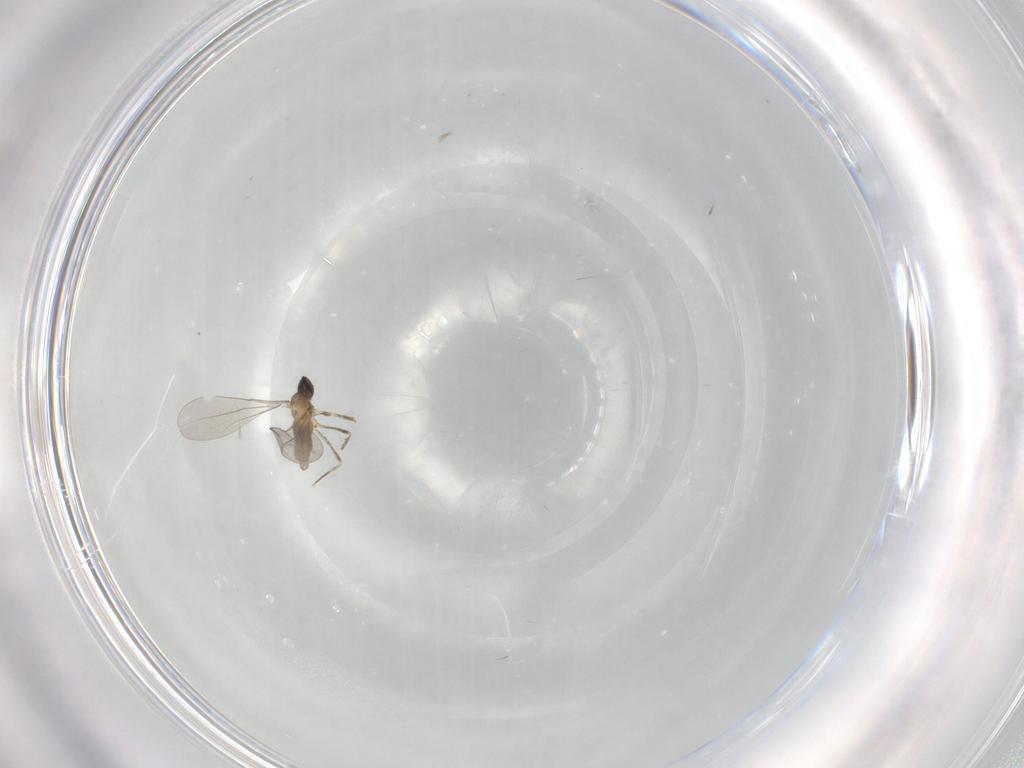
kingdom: Animalia
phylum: Arthropoda
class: Insecta
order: Diptera
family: Cecidomyiidae
